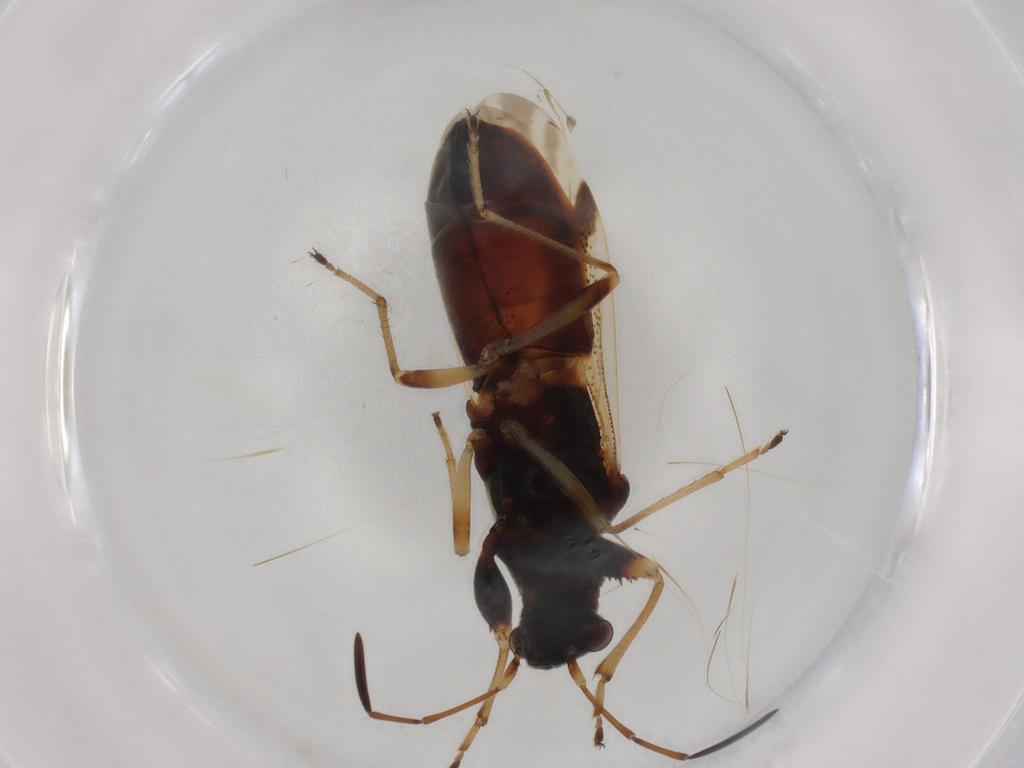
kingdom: Animalia
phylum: Arthropoda
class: Insecta
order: Hemiptera
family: Rhyparochromidae
